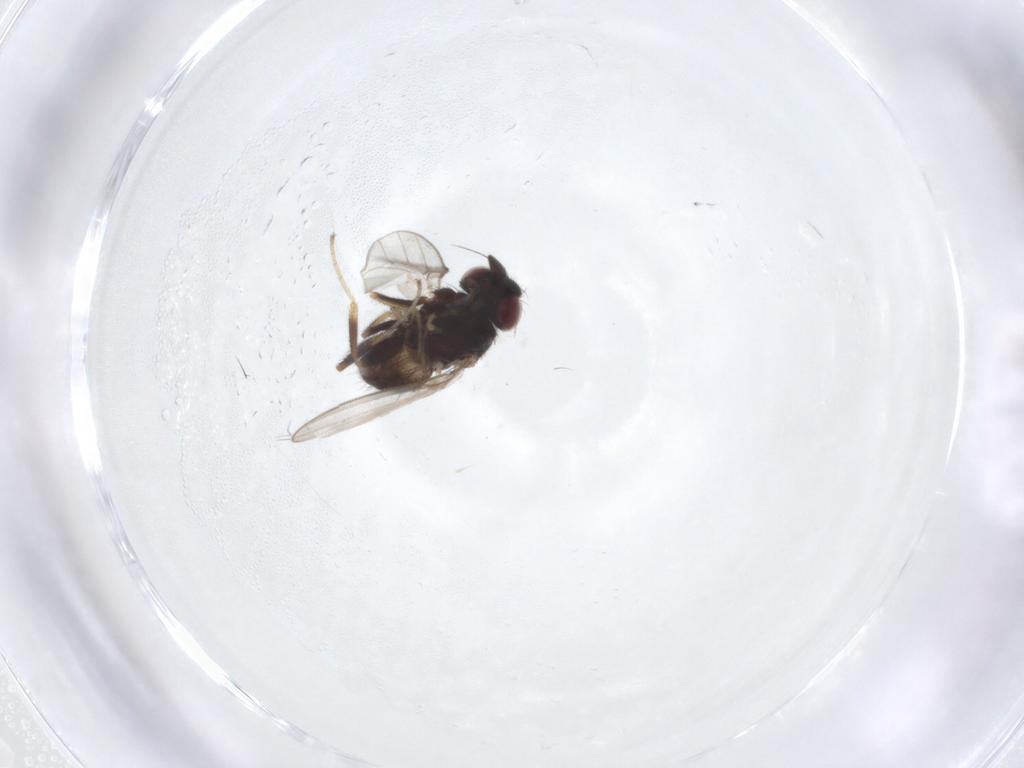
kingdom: Animalia
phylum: Arthropoda
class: Insecta
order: Diptera
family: Milichiidae
